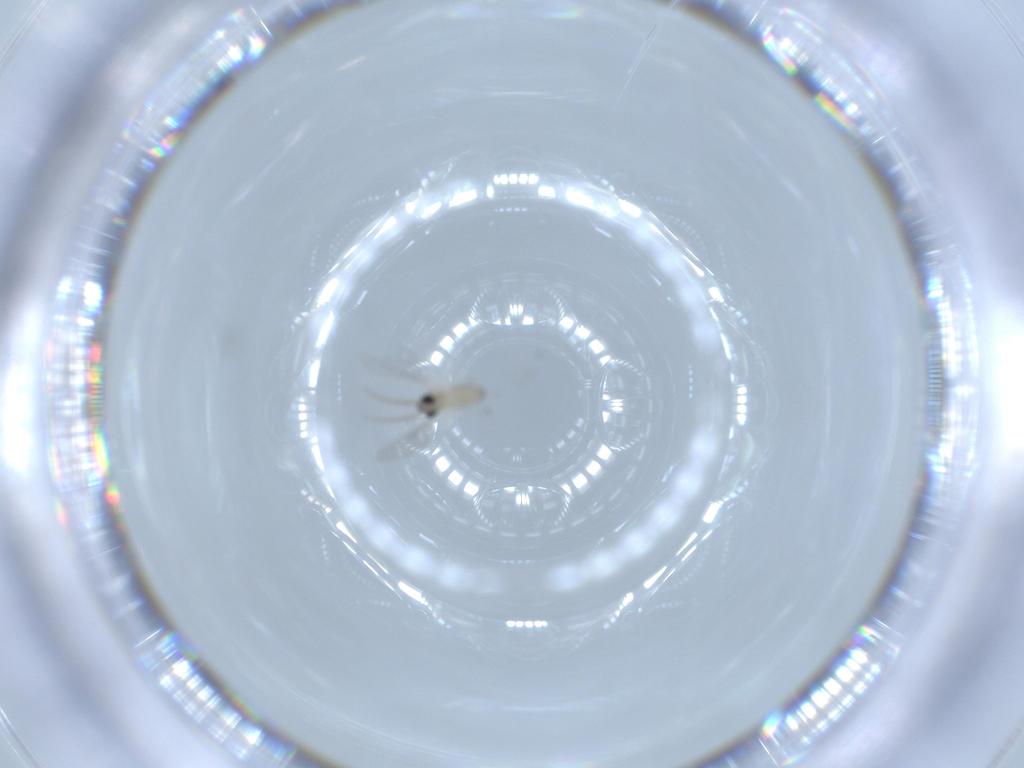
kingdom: Animalia
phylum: Arthropoda
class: Insecta
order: Diptera
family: Cecidomyiidae
